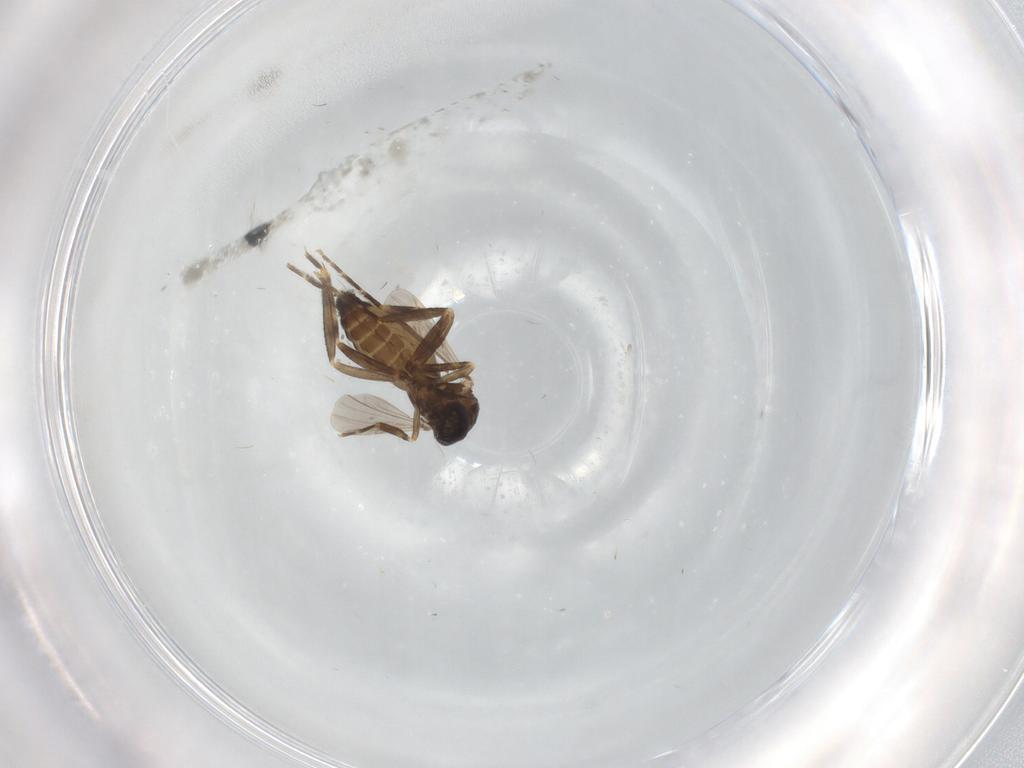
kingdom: Animalia
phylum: Arthropoda
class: Insecta
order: Diptera
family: Ceratopogonidae
